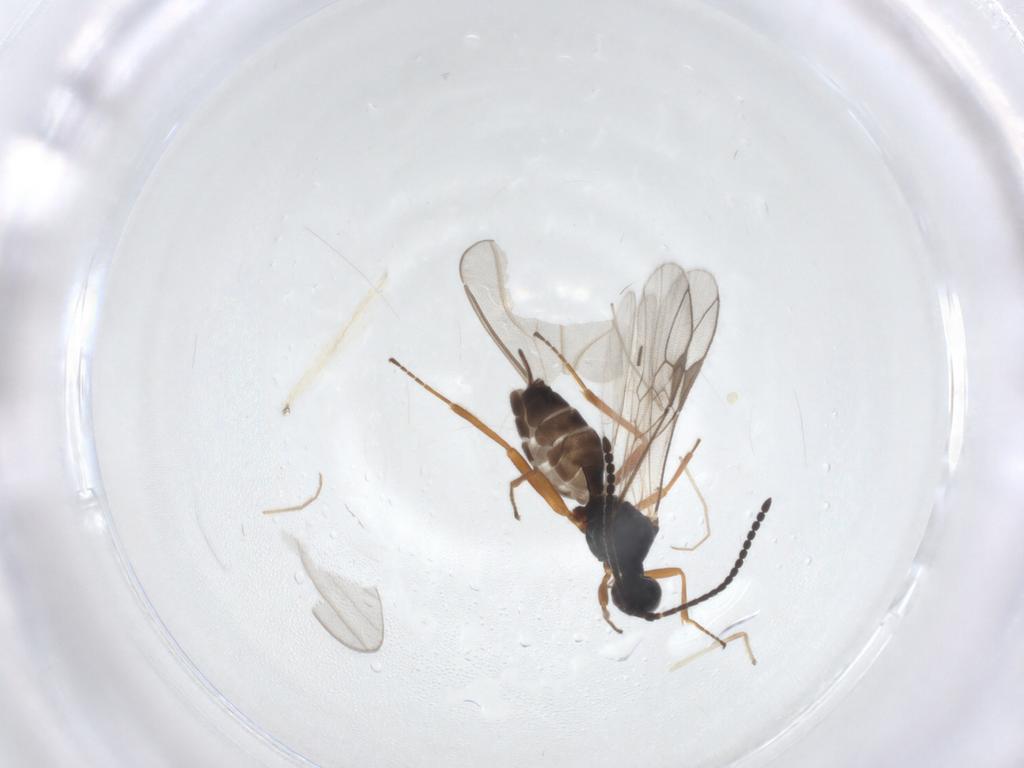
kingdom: Animalia
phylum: Arthropoda
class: Insecta
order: Hymenoptera
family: Braconidae
